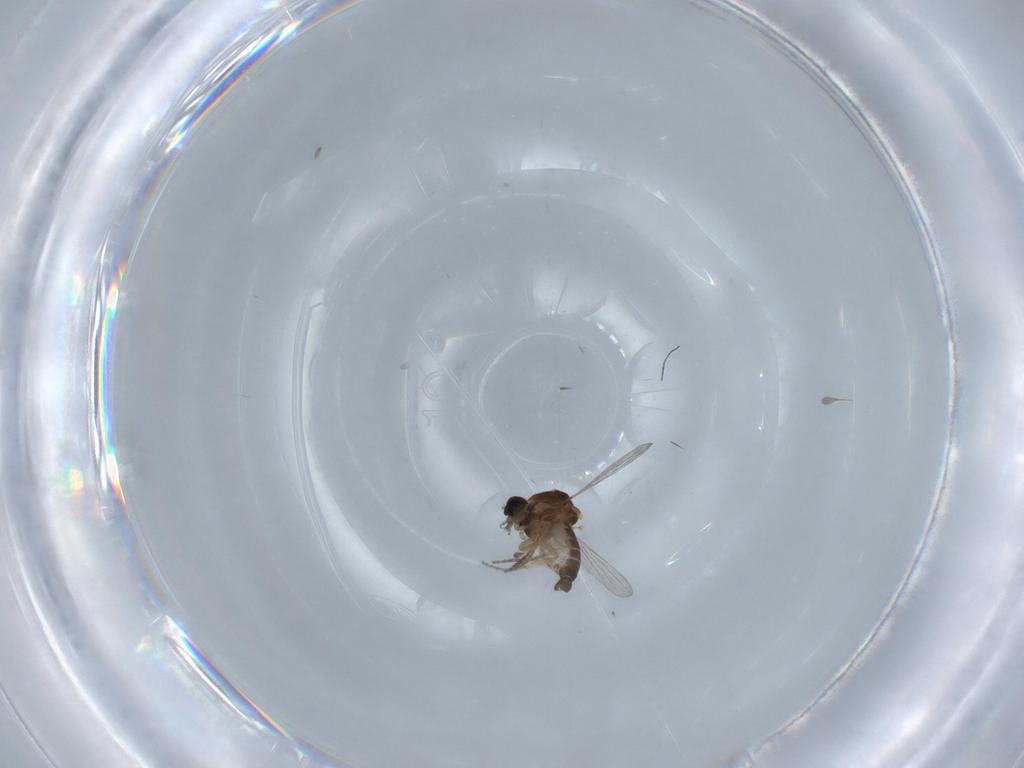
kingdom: Animalia
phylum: Arthropoda
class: Insecta
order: Diptera
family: Ceratopogonidae
